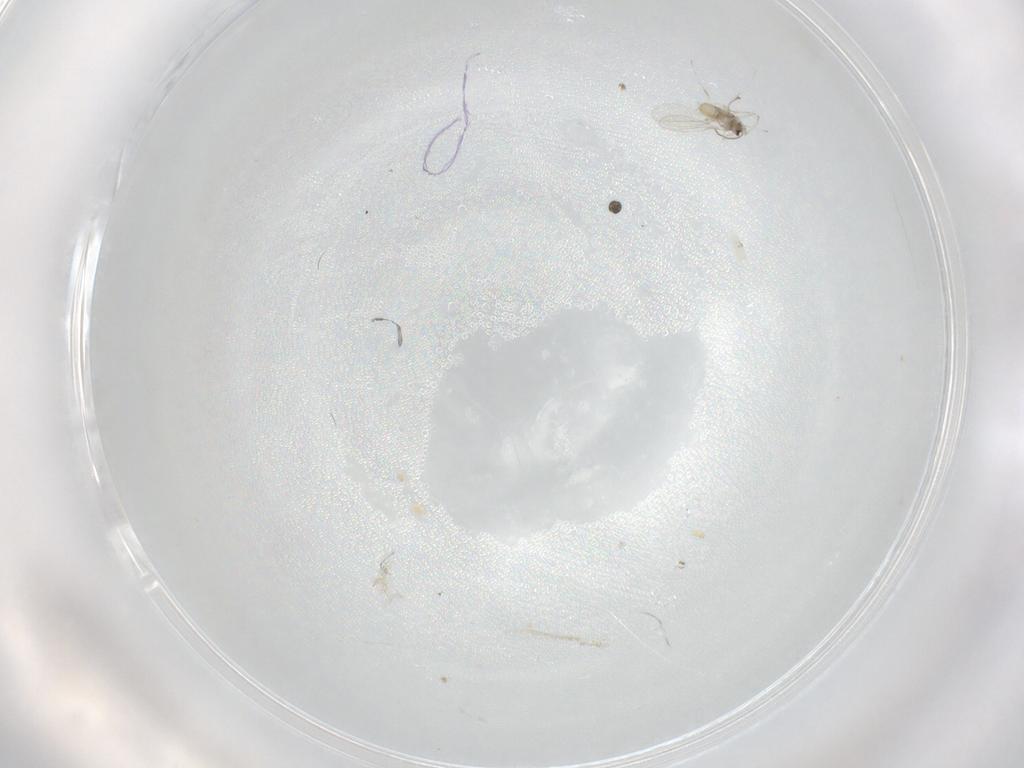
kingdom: Animalia
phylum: Arthropoda
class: Insecta
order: Diptera
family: Cecidomyiidae
